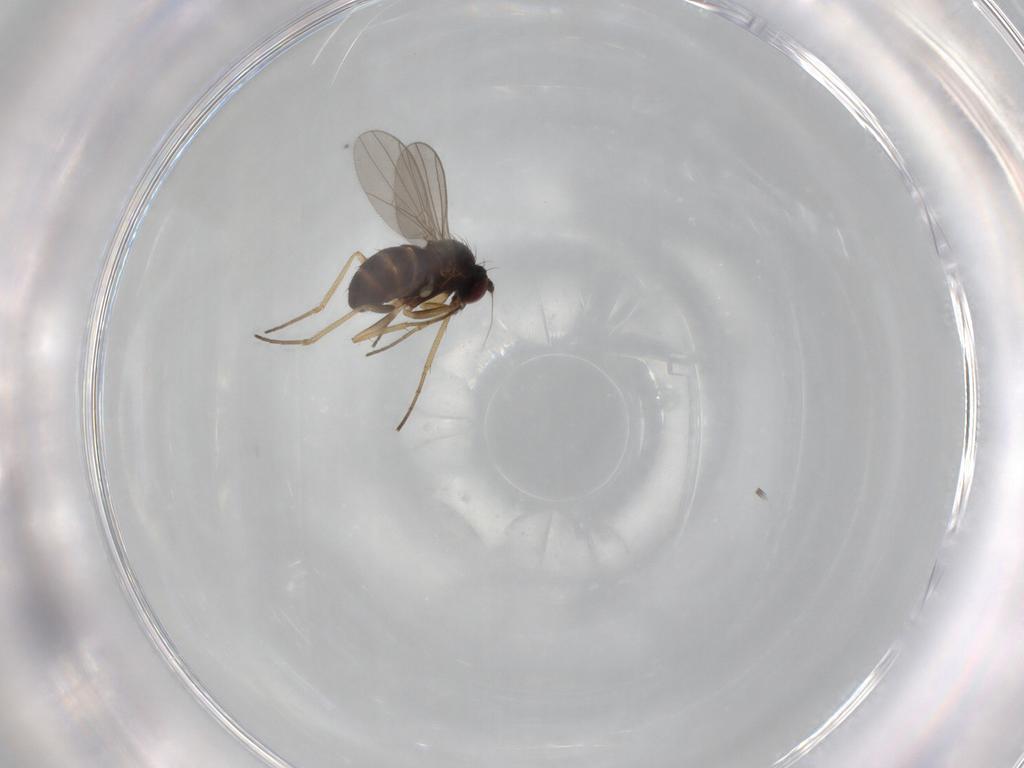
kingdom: Animalia
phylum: Arthropoda
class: Insecta
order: Diptera
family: Dolichopodidae
